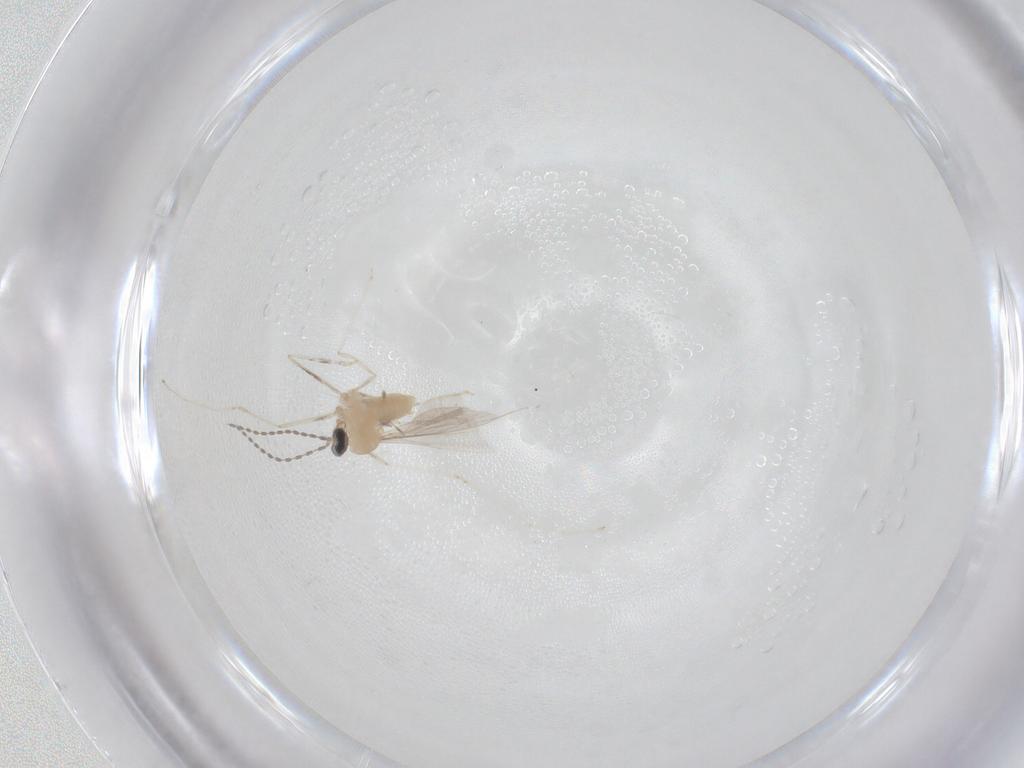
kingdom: Animalia
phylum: Arthropoda
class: Insecta
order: Diptera
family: Cecidomyiidae
